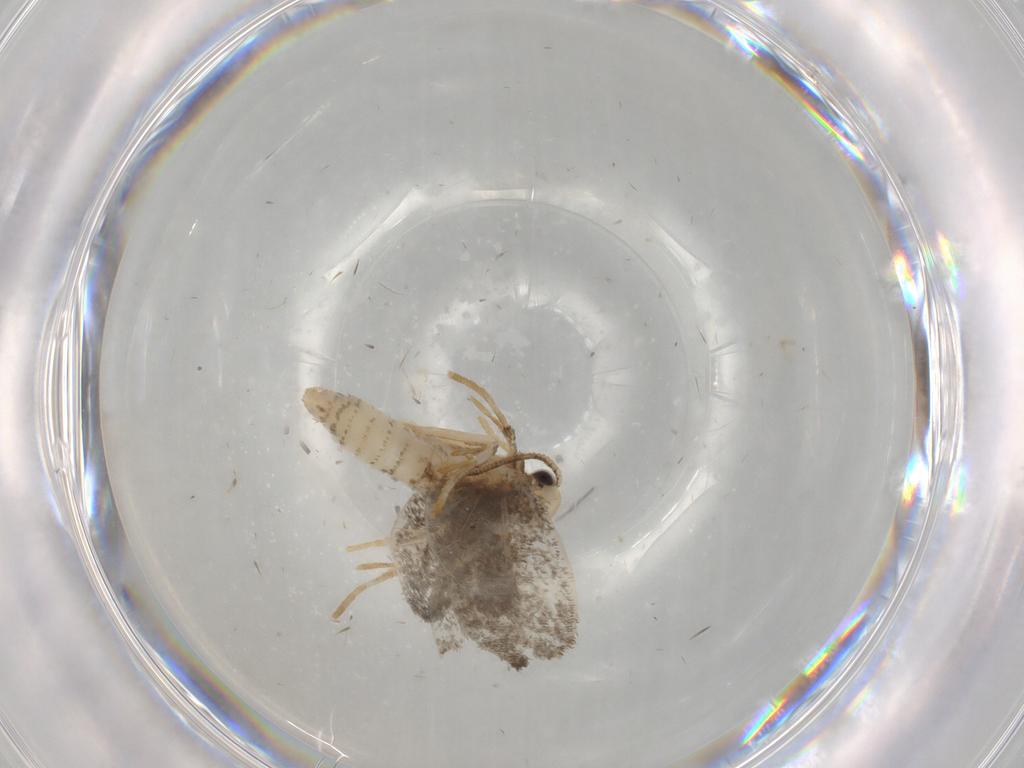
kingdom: Animalia
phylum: Arthropoda
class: Insecta
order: Lepidoptera
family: Psychidae
